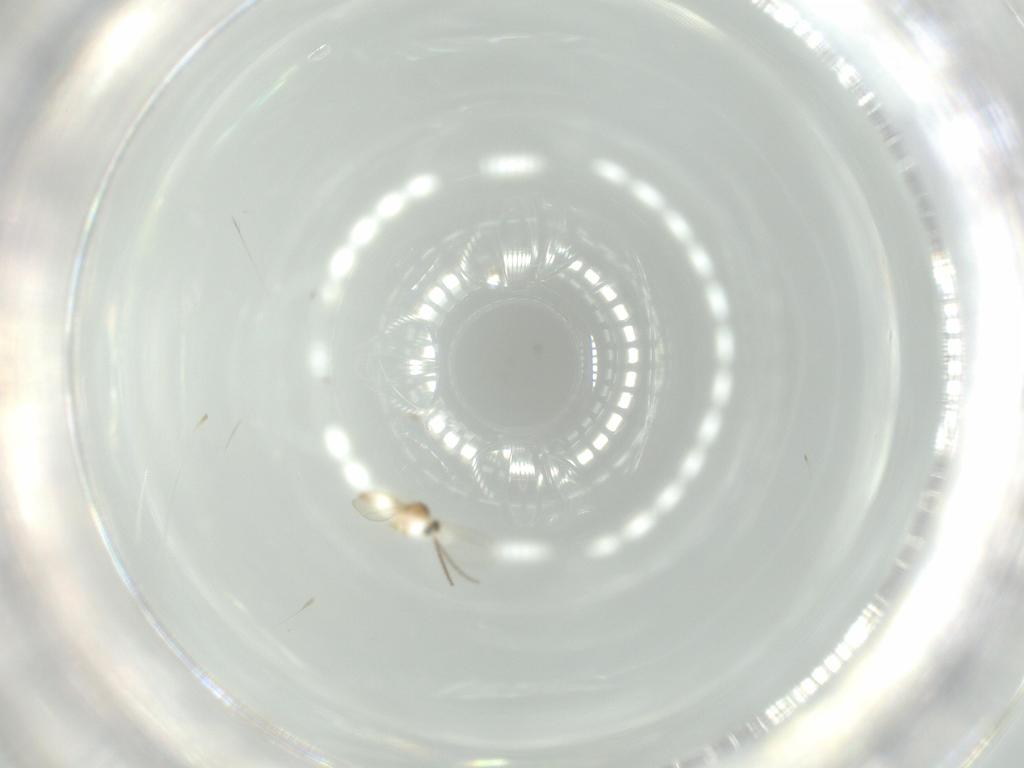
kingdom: Animalia
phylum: Arthropoda
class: Insecta
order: Diptera
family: Cecidomyiidae
